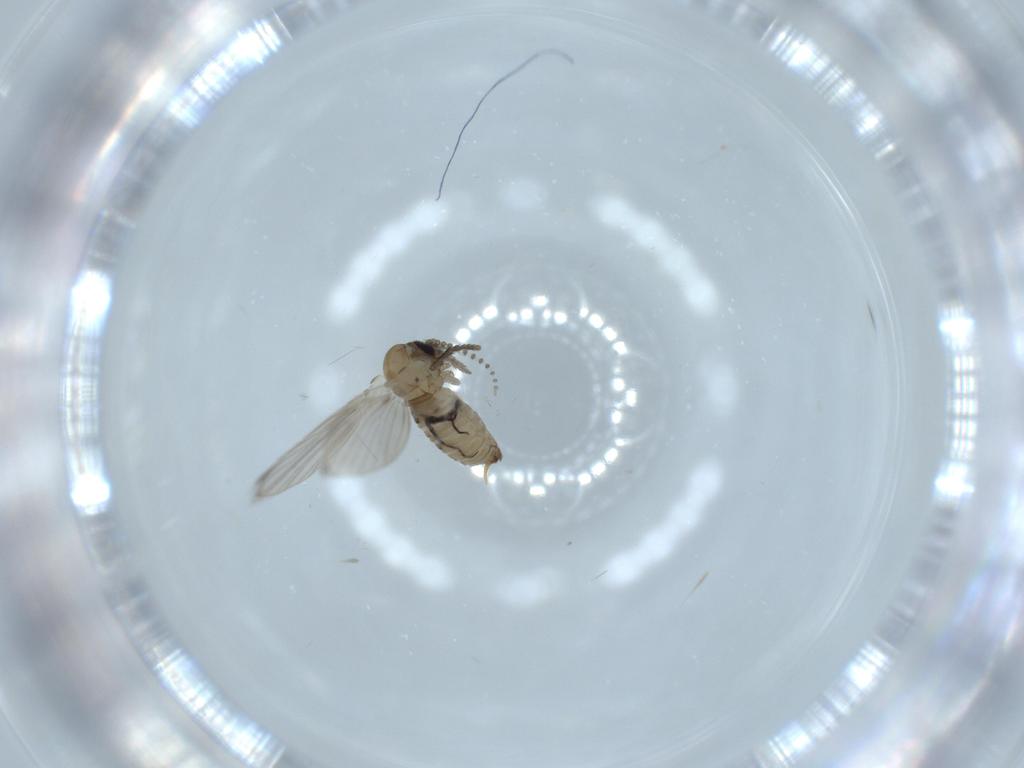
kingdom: Animalia
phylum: Arthropoda
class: Insecta
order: Diptera
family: Psychodidae
